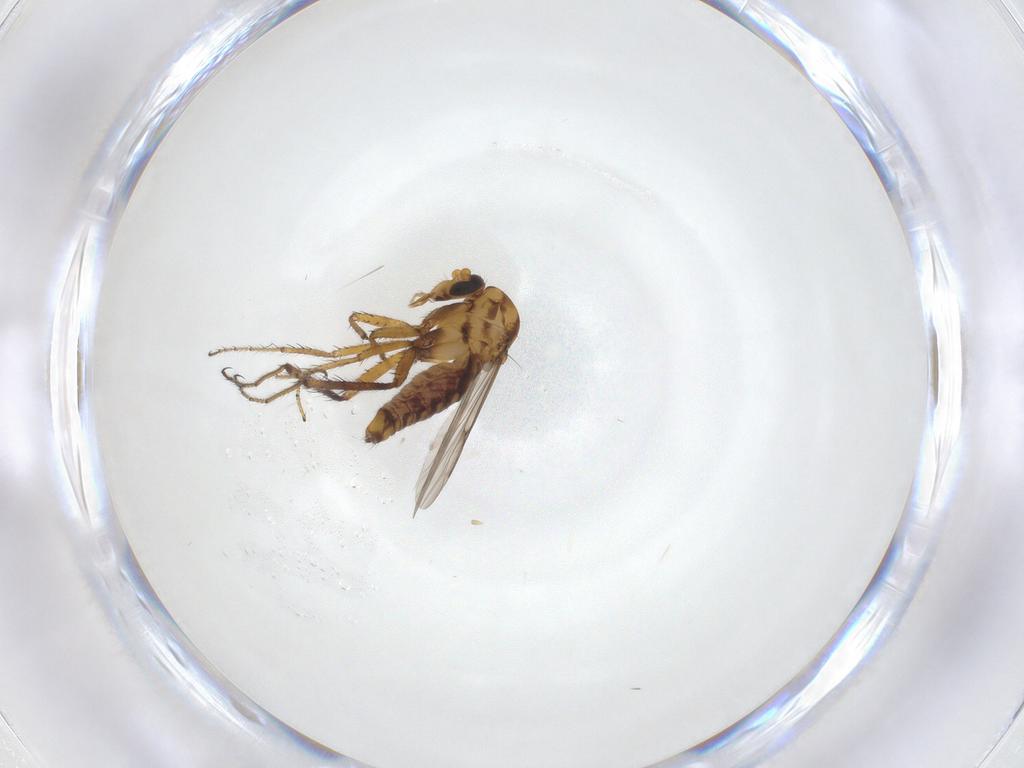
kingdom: Animalia
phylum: Arthropoda
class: Insecta
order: Diptera
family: Ceratopogonidae
